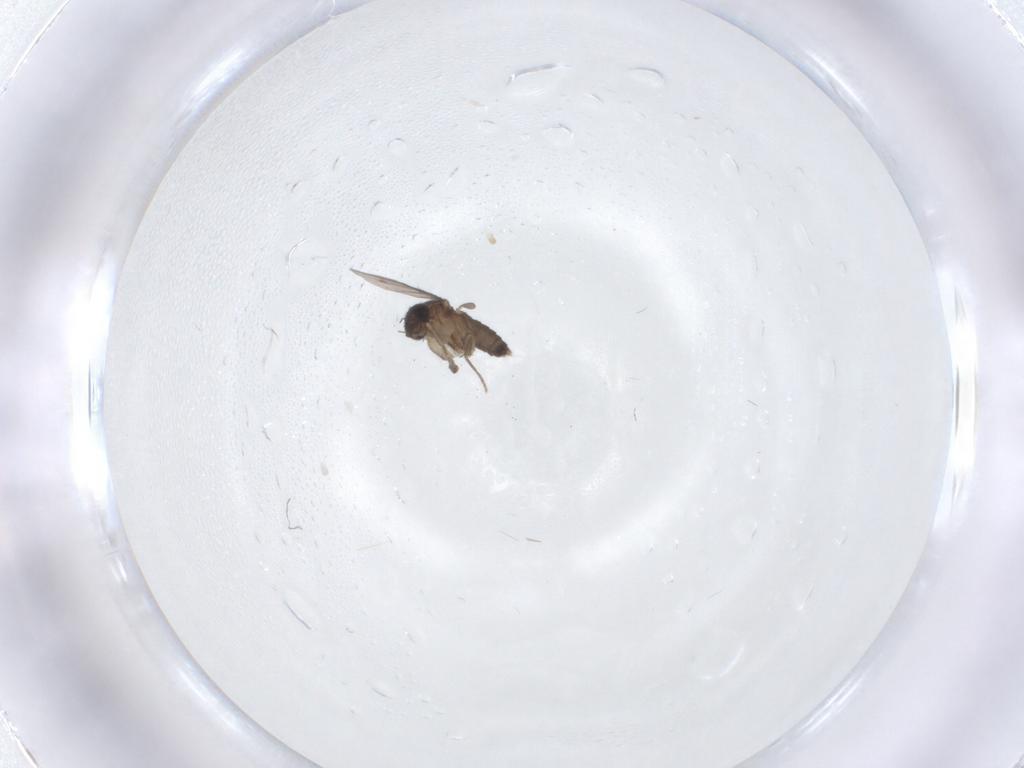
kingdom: Animalia
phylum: Arthropoda
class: Insecta
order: Diptera
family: Phoridae
